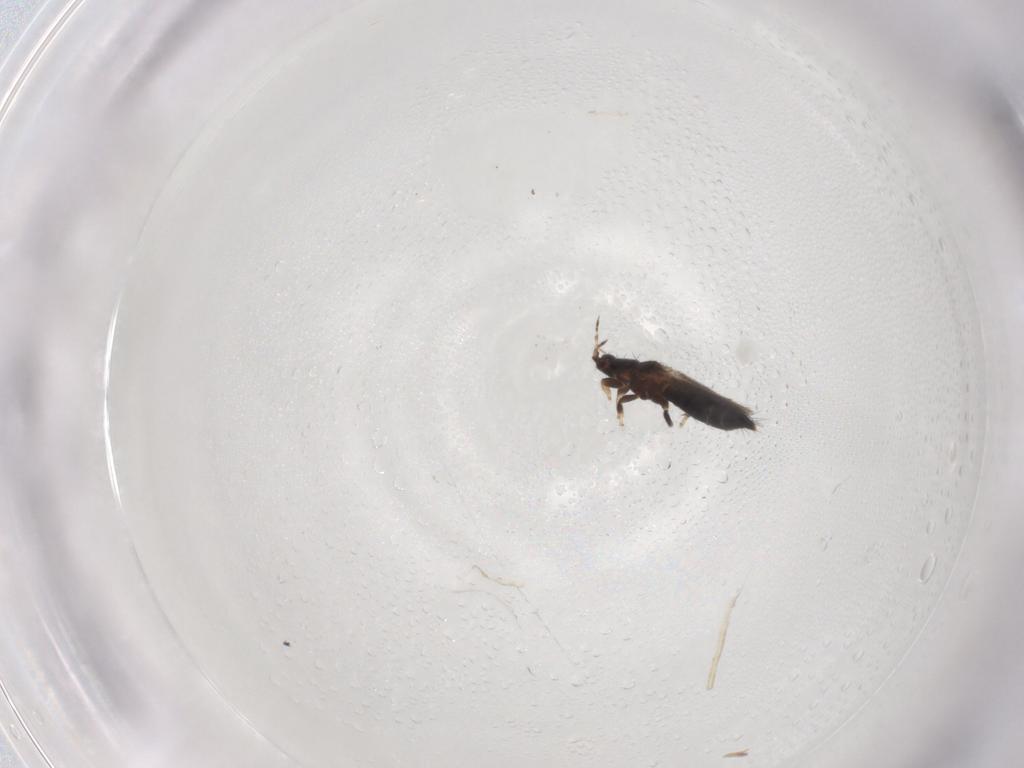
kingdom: Animalia
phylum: Arthropoda
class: Insecta
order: Thysanoptera
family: Thripidae
